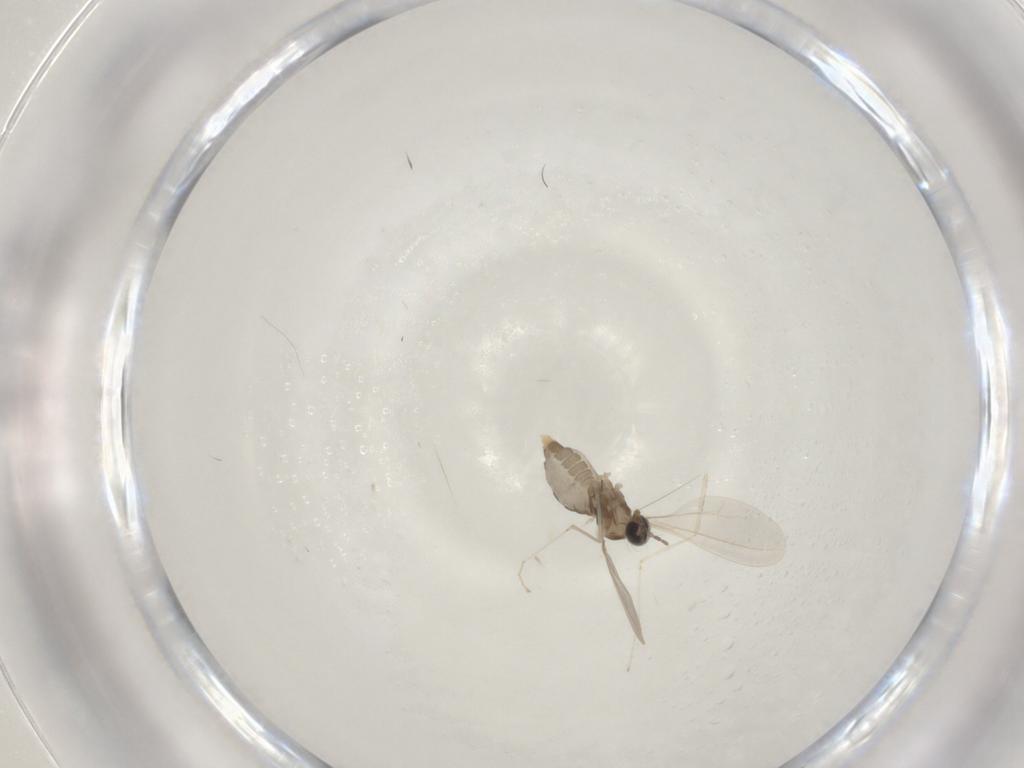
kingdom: Animalia
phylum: Arthropoda
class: Insecta
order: Diptera
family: Cecidomyiidae
